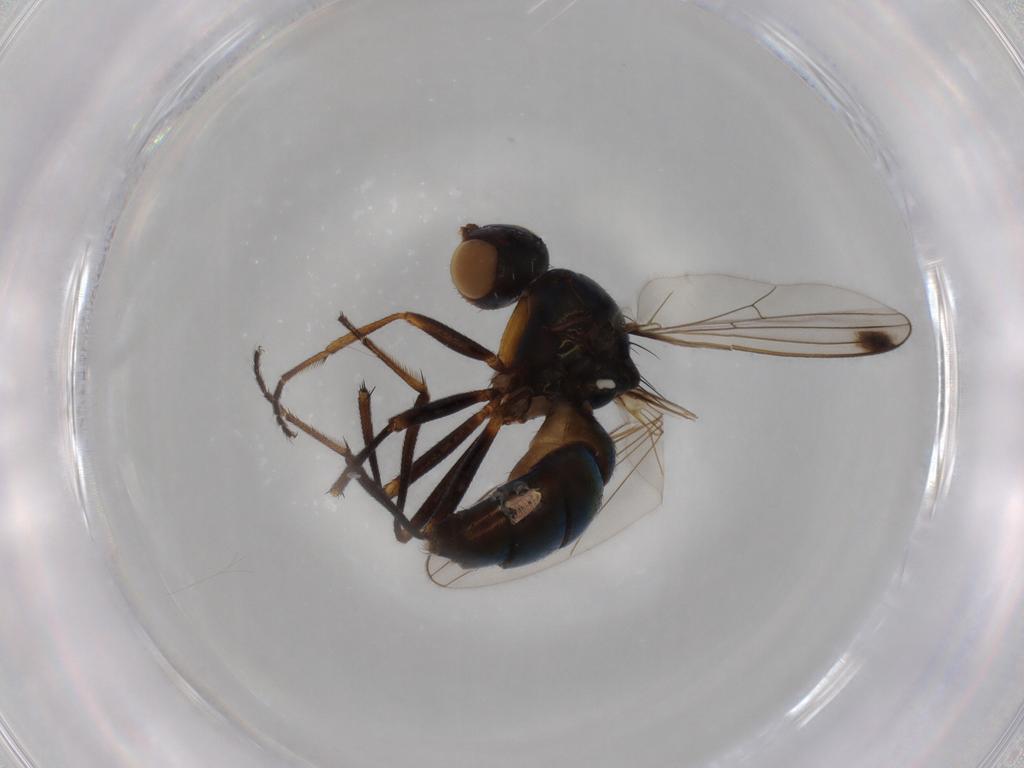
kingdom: Animalia
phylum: Arthropoda
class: Insecta
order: Diptera
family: Sepsidae
